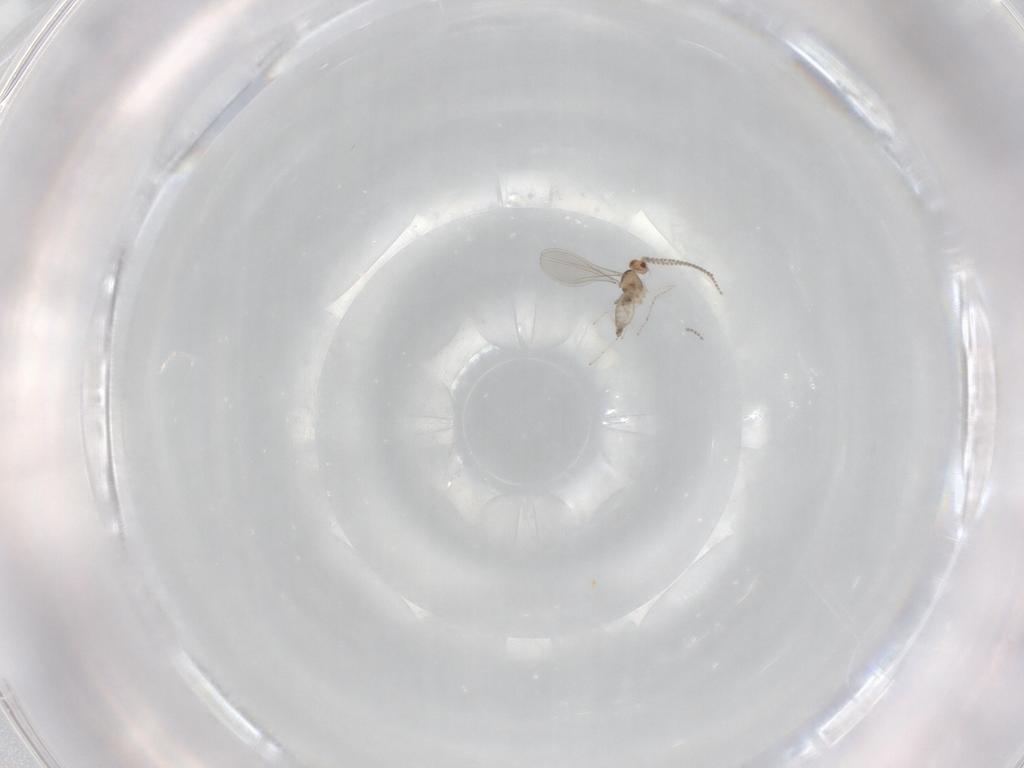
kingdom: Animalia
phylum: Arthropoda
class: Insecta
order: Diptera
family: Cecidomyiidae
